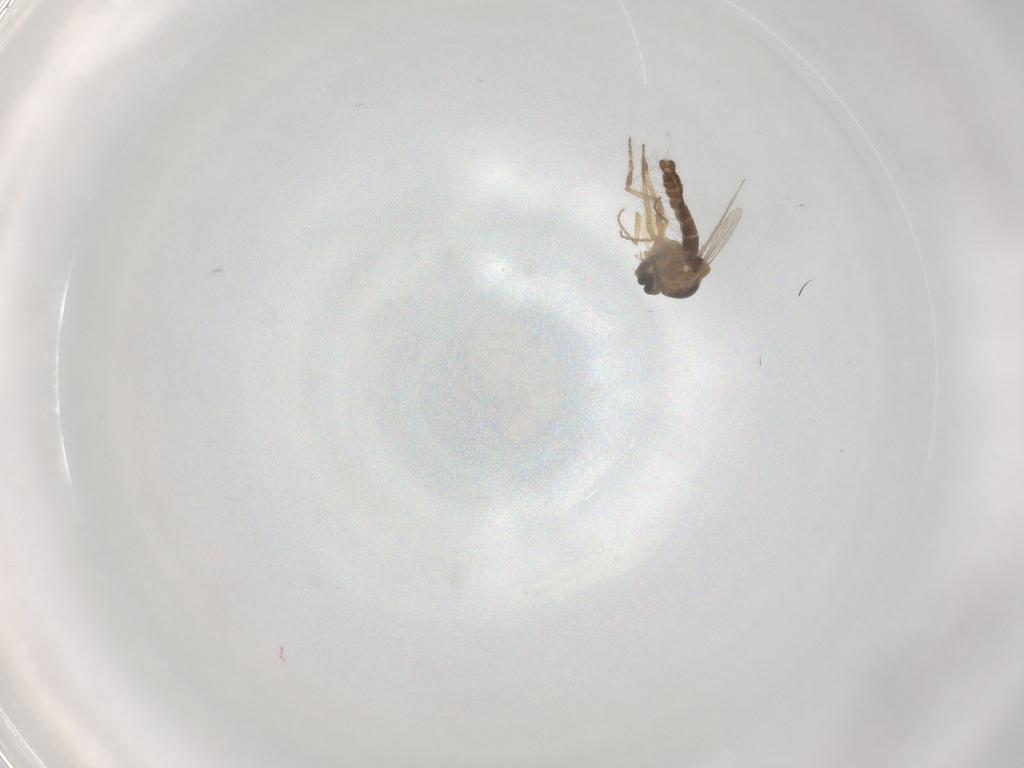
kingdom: Animalia
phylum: Arthropoda
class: Insecta
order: Diptera
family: Ceratopogonidae
